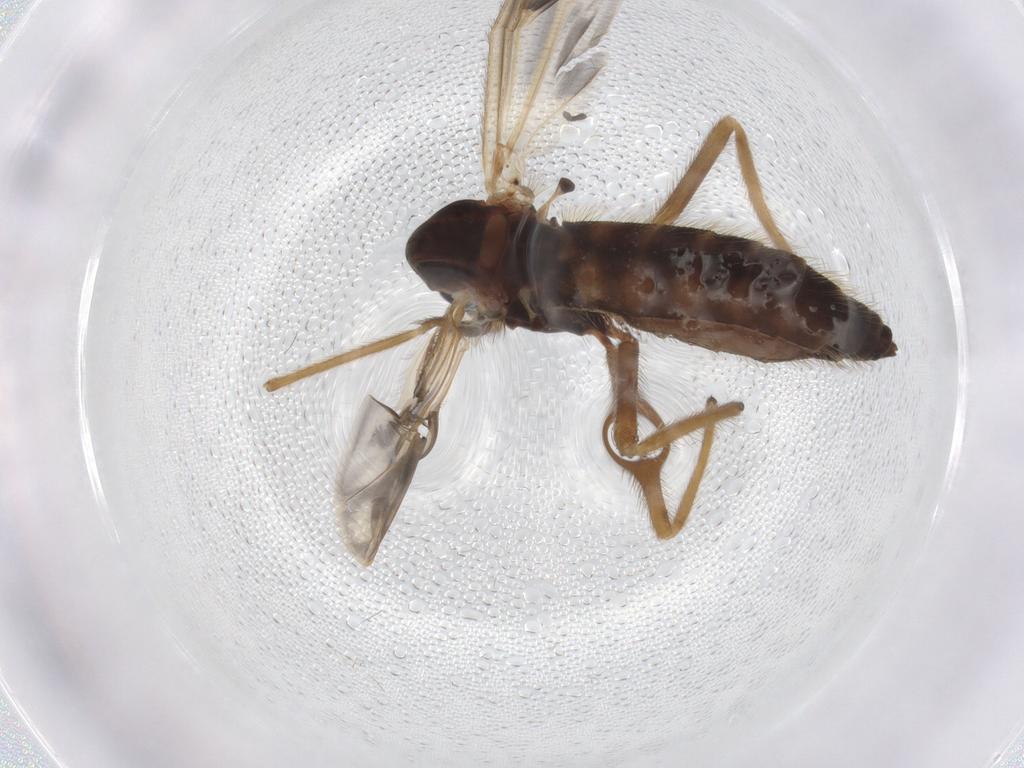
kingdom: Animalia
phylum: Arthropoda
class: Insecta
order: Diptera
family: Chironomidae
